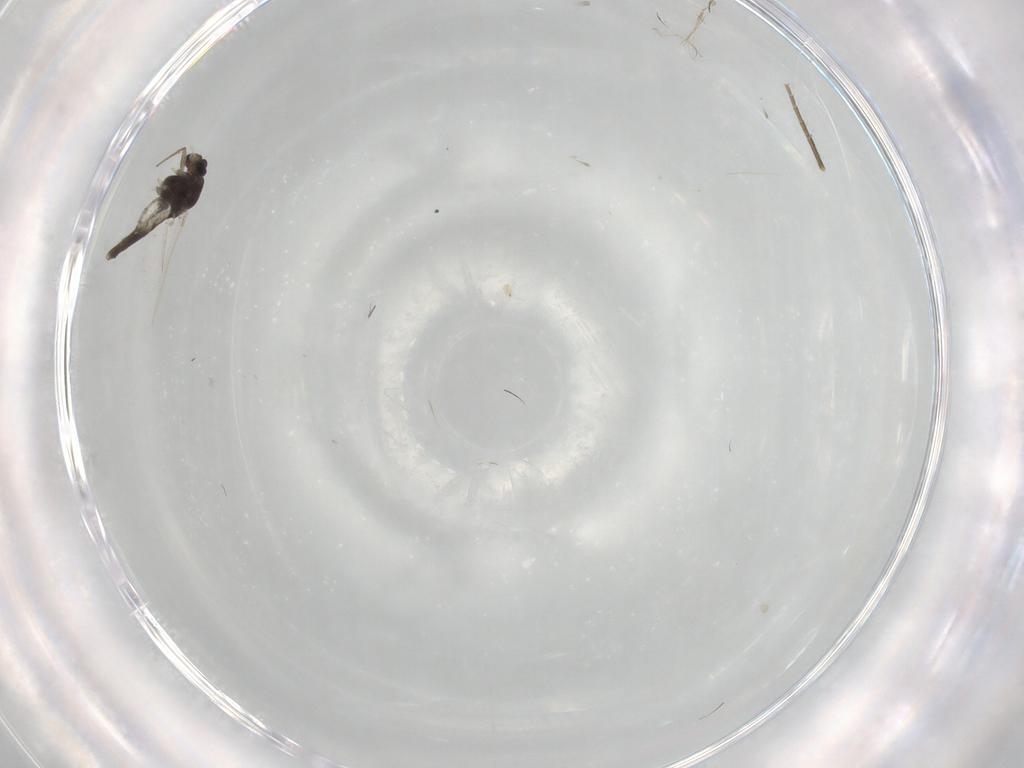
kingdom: Animalia
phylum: Arthropoda
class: Insecta
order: Diptera
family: Chironomidae
